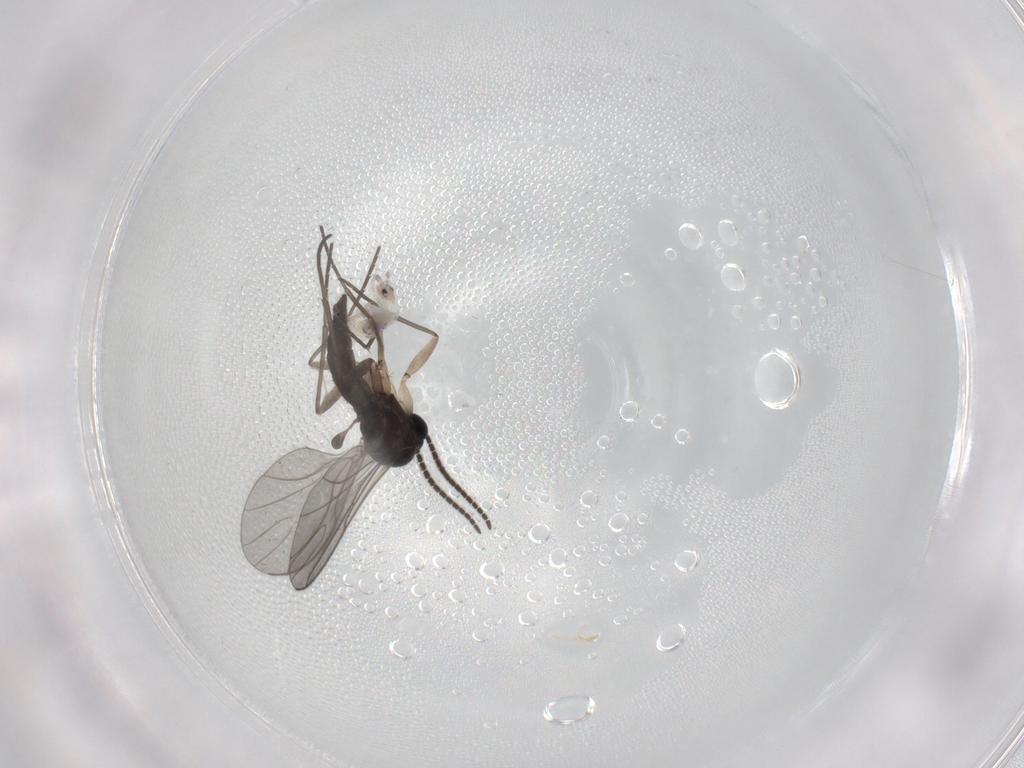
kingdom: Animalia
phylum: Arthropoda
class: Insecta
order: Diptera
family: Sciaridae
